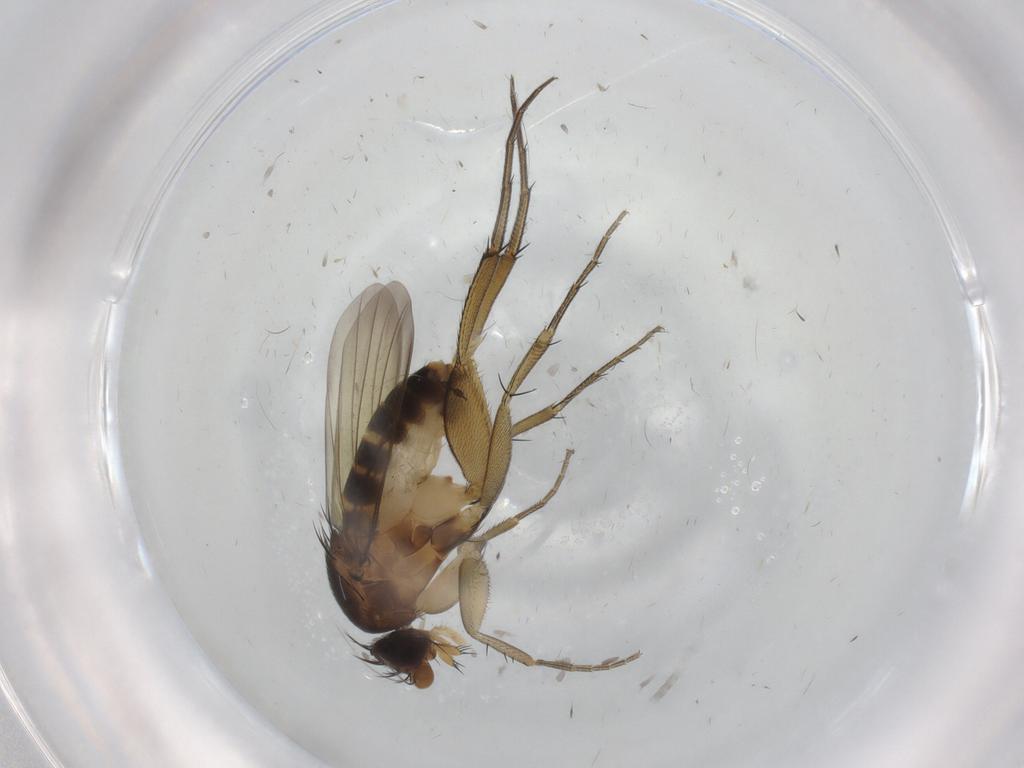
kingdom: Animalia
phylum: Arthropoda
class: Insecta
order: Diptera
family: Phoridae
